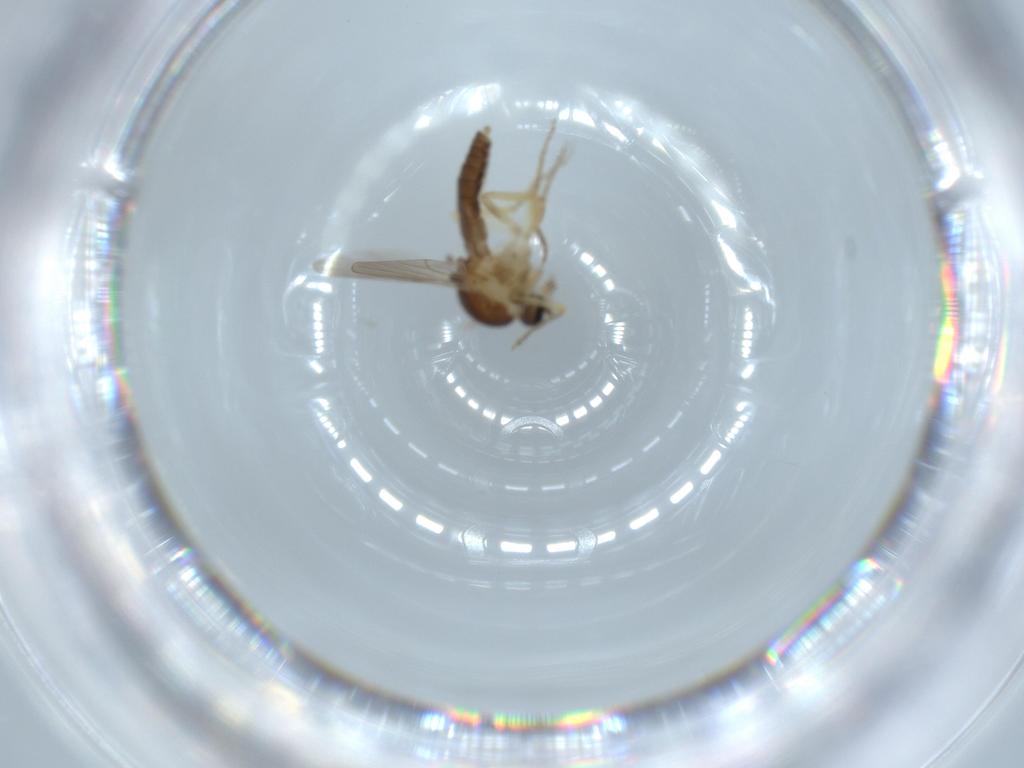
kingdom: Animalia
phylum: Arthropoda
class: Insecta
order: Diptera
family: Ceratopogonidae
